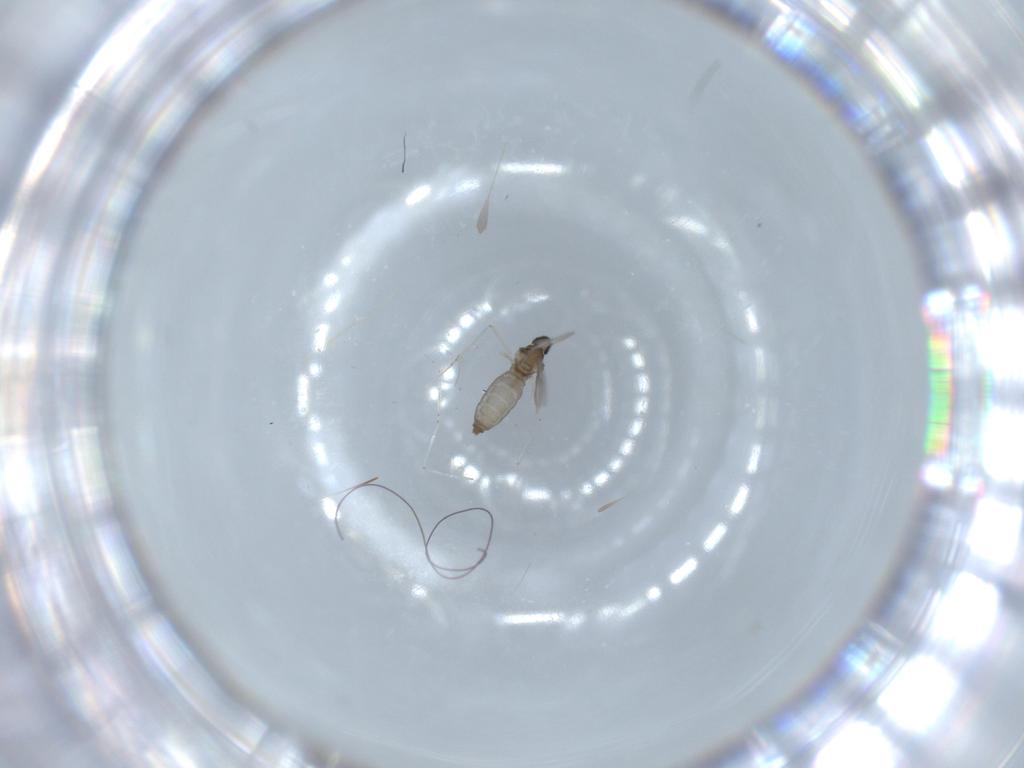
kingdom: Animalia
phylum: Arthropoda
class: Insecta
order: Diptera
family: Cecidomyiidae
